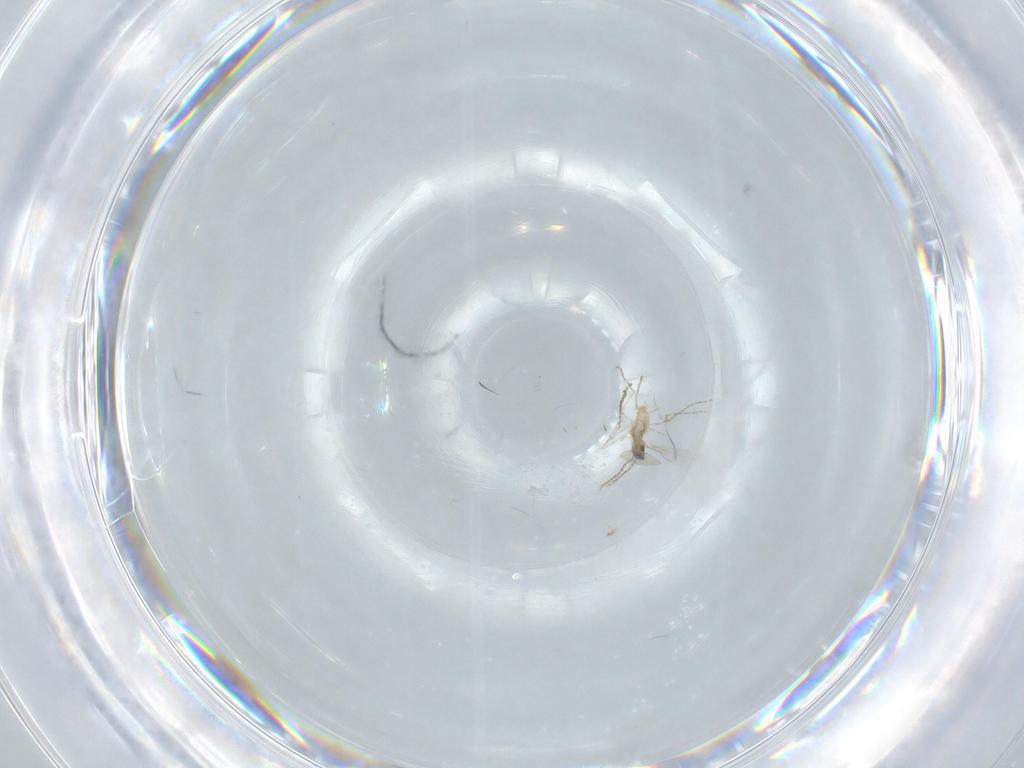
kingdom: Animalia
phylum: Arthropoda
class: Insecta
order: Diptera
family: Cecidomyiidae
